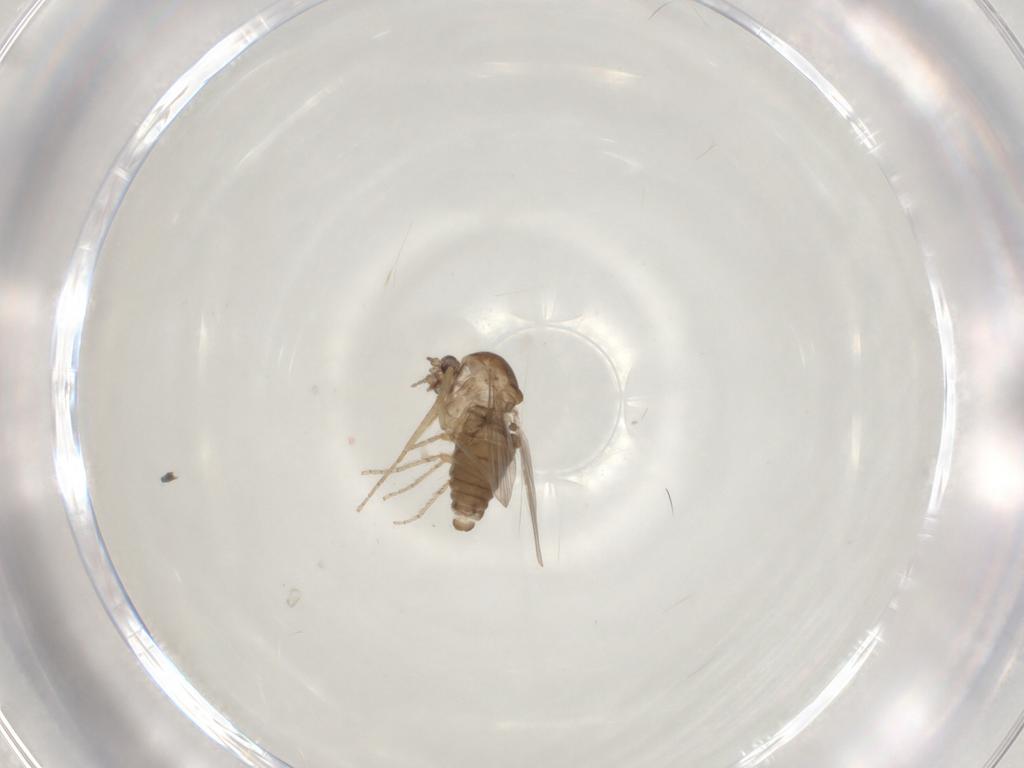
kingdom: Animalia
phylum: Arthropoda
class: Insecta
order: Diptera
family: Ceratopogonidae
